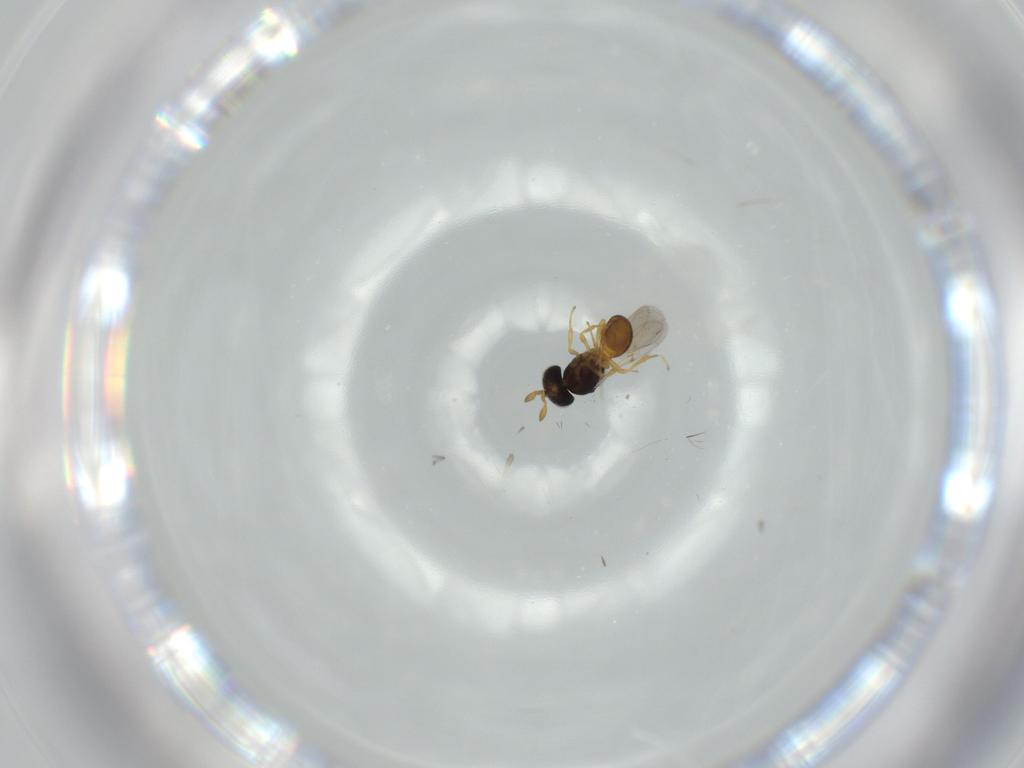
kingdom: Animalia
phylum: Arthropoda
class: Insecta
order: Hymenoptera
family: Scelionidae
